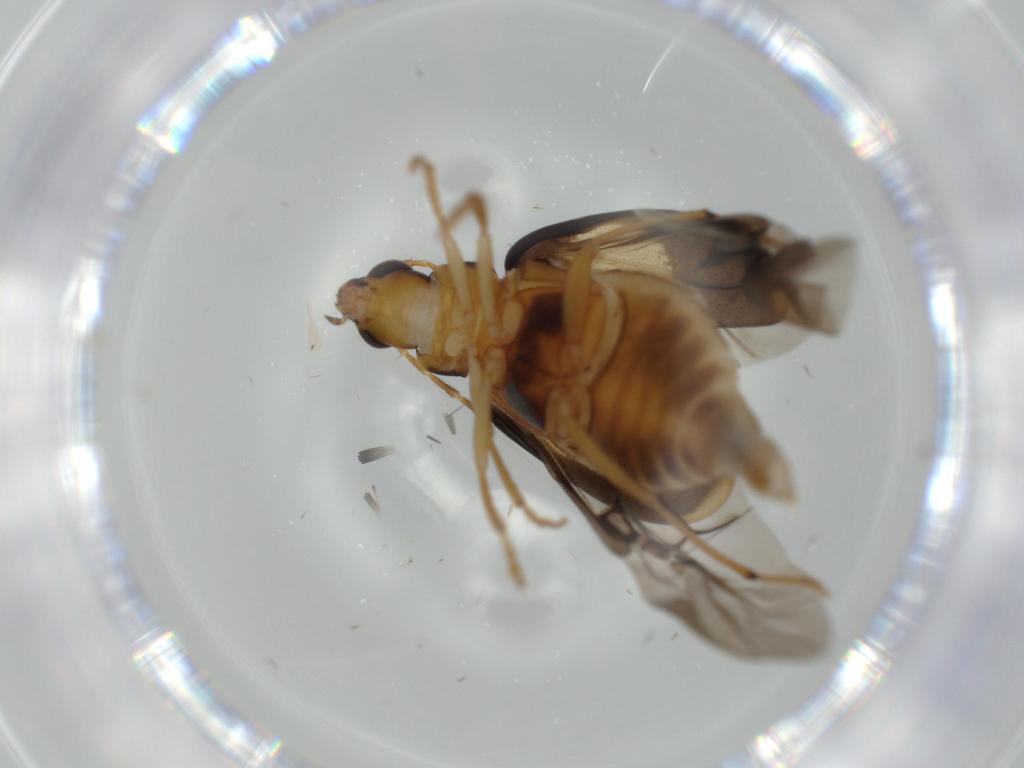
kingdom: Animalia
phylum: Arthropoda
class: Insecta
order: Coleoptera
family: Chrysomelidae
